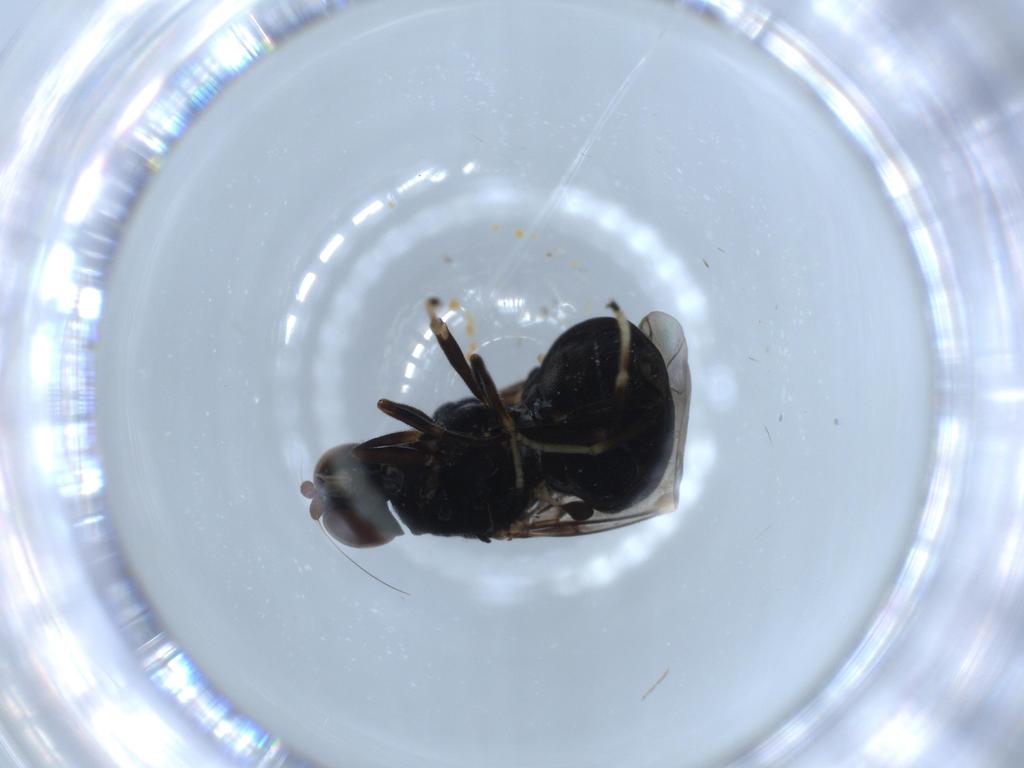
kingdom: Animalia
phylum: Arthropoda
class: Insecta
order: Diptera
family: Stratiomyidae
